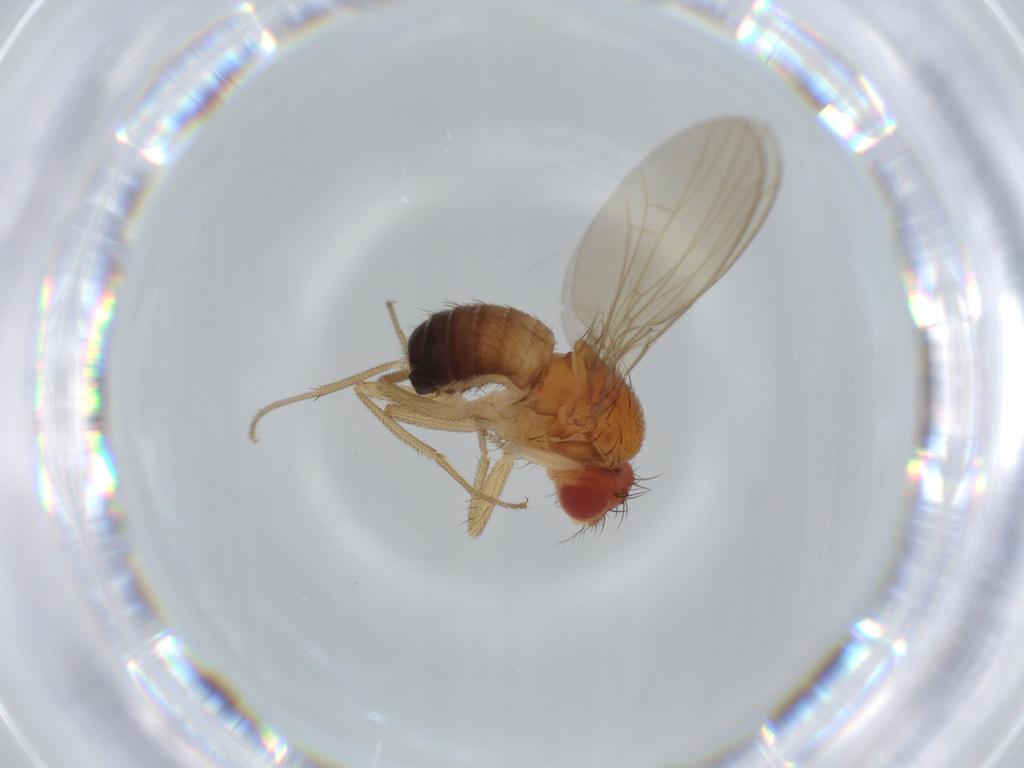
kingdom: Animalia
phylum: Arthropoda
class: Insecta
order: Diptera
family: Drosophilidae
